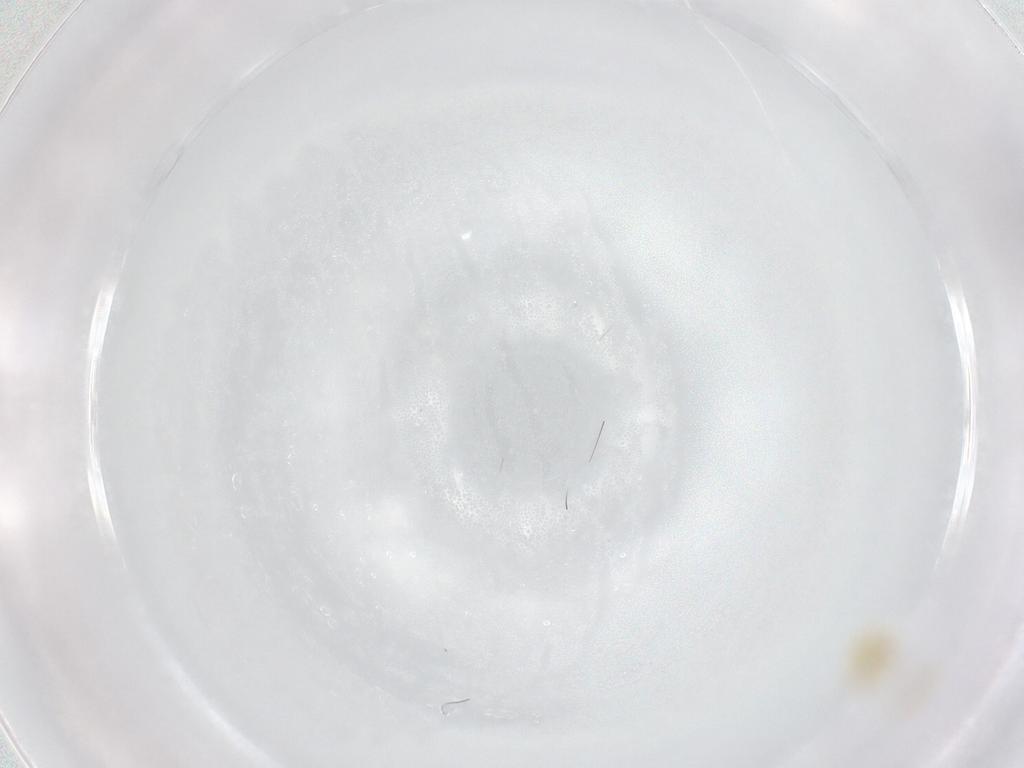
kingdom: Animalia
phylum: Arthropoda
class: Arachnida
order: Trombidiformes
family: Tetranychidae
